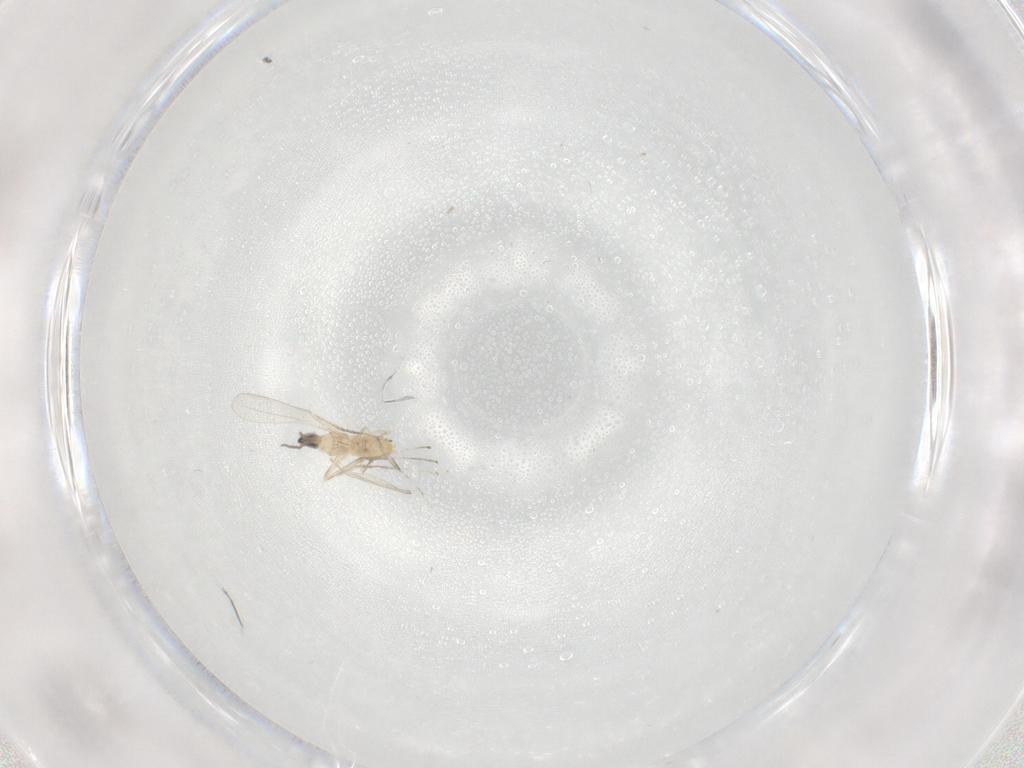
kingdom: Animalia
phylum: Arthropoda
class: Insecta
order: Diptera
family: Cecidomyiidae
